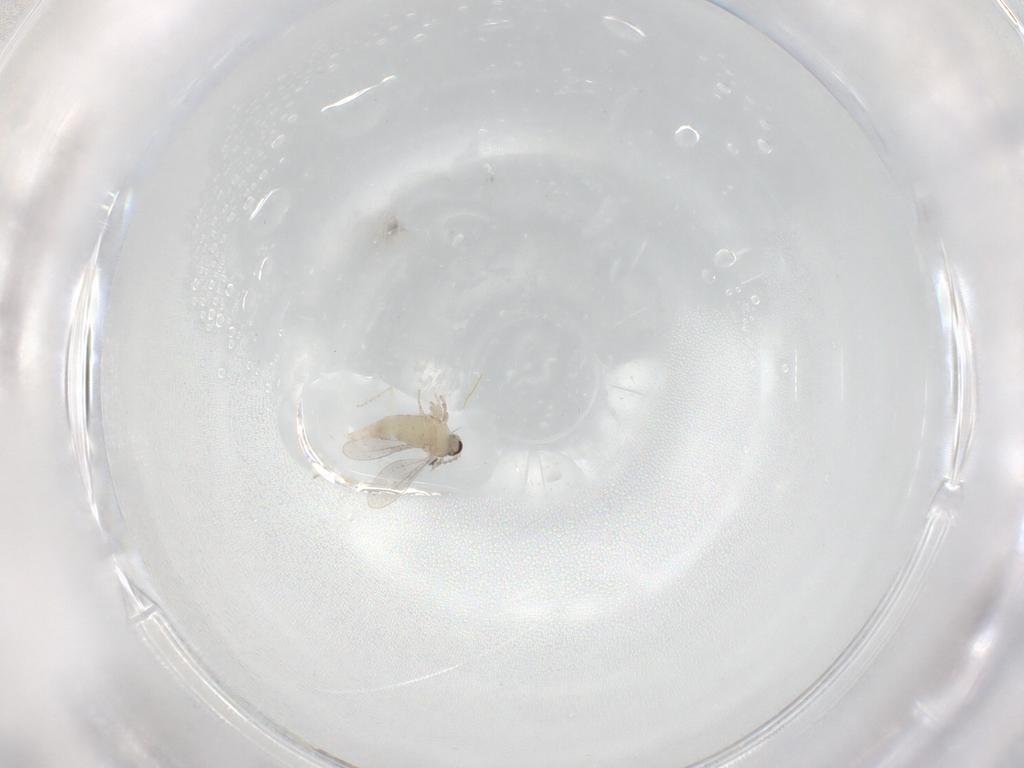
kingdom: Animalia
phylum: Arthropoda
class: Insecta
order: Diptera
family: Cecidomyiidae
